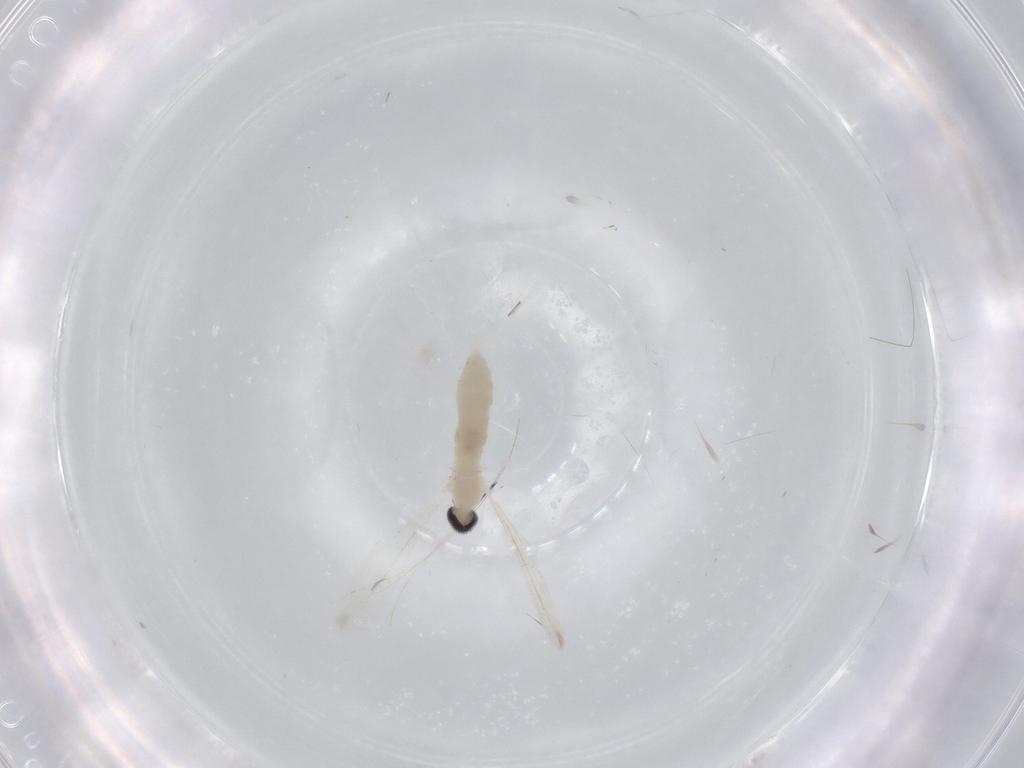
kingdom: Animalia
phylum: Arthropoda
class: Insecta
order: Diptera
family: Cecidomyiidae
